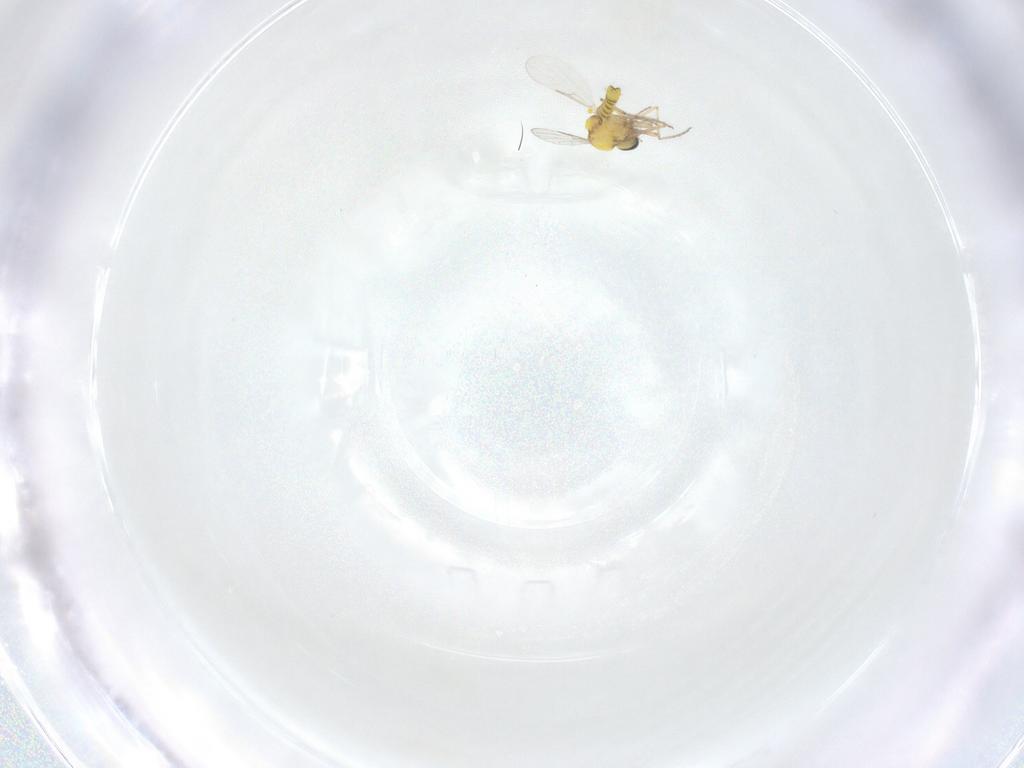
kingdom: Animalia
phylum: Arthropoda
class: Insecta
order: Diptera
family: Ceratopogonidae
